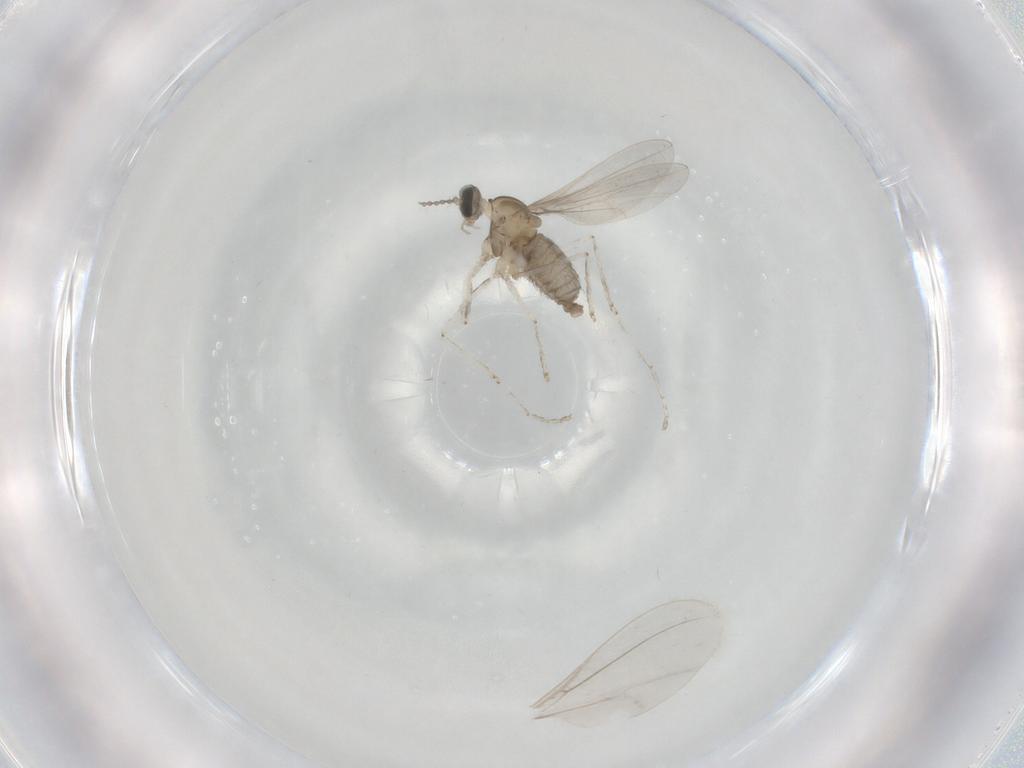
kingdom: Animalia
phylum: Arthropoda
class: Insecta
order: Diptera
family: Cecidomyiidae
